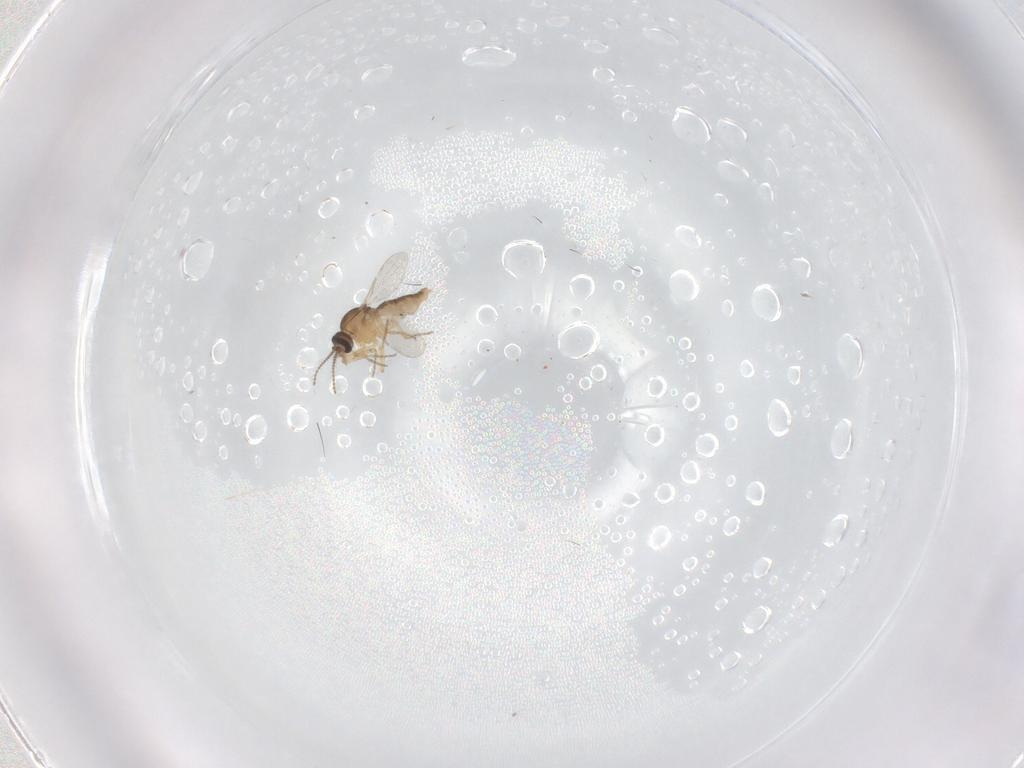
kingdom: Animalia
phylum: Arthropoda
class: Insecta
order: Diptera
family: Ceratopogonidae
